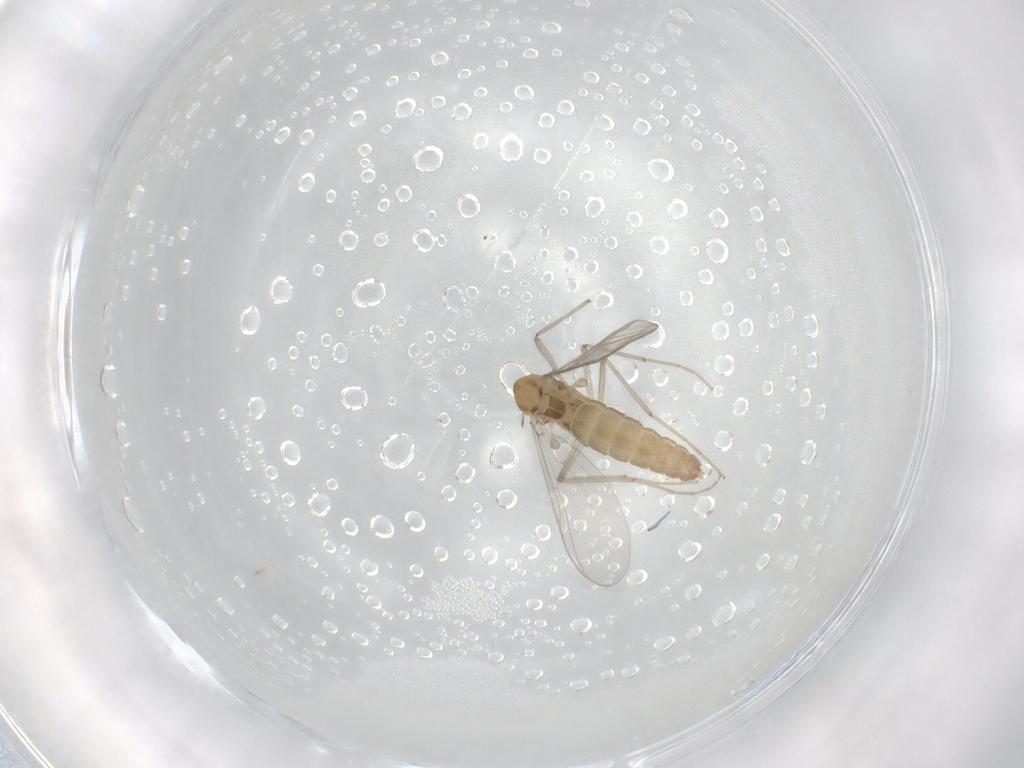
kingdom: Animalia
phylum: Arthropoda
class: Insecta
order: Diptera
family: Chironomidae
